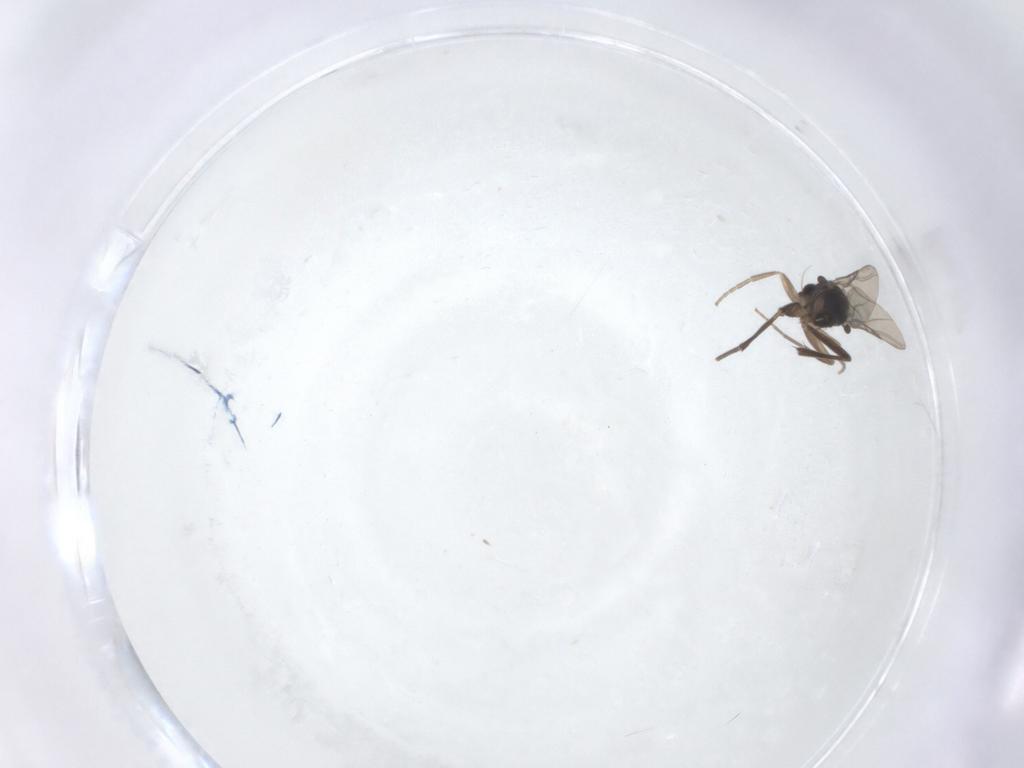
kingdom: Animalia
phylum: Arthropoda
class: Insecta
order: Diptera
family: Phoridae
